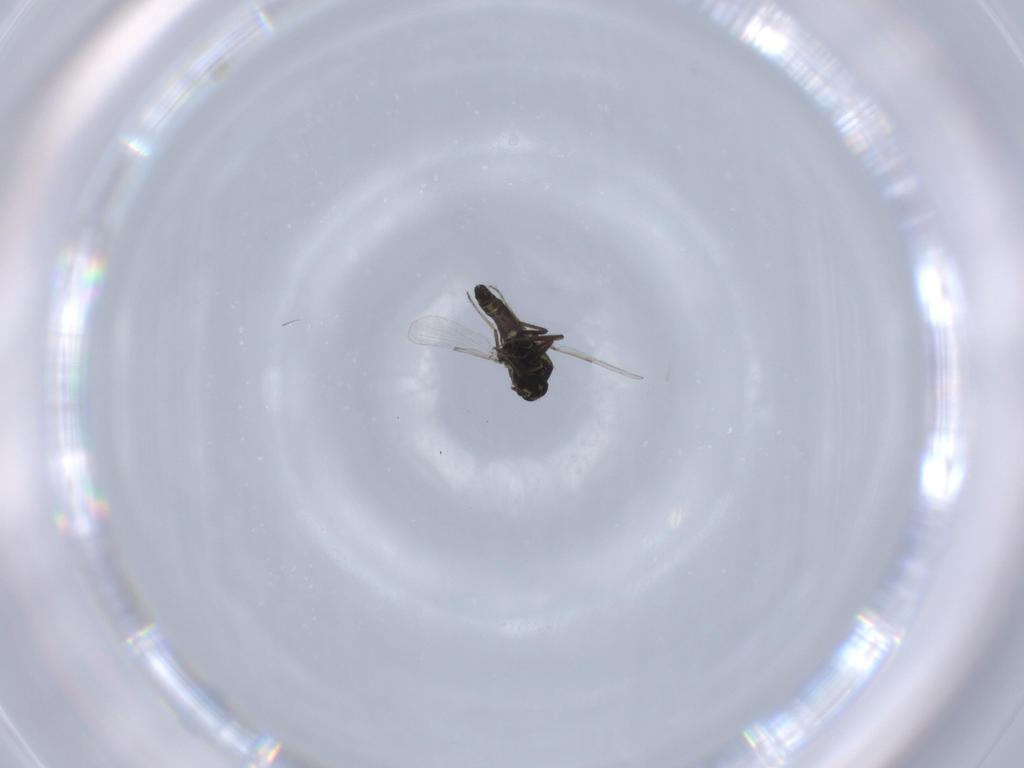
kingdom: Animalia
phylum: Arthropoda
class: Insecta
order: Diptera
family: Ceratopogonidae
